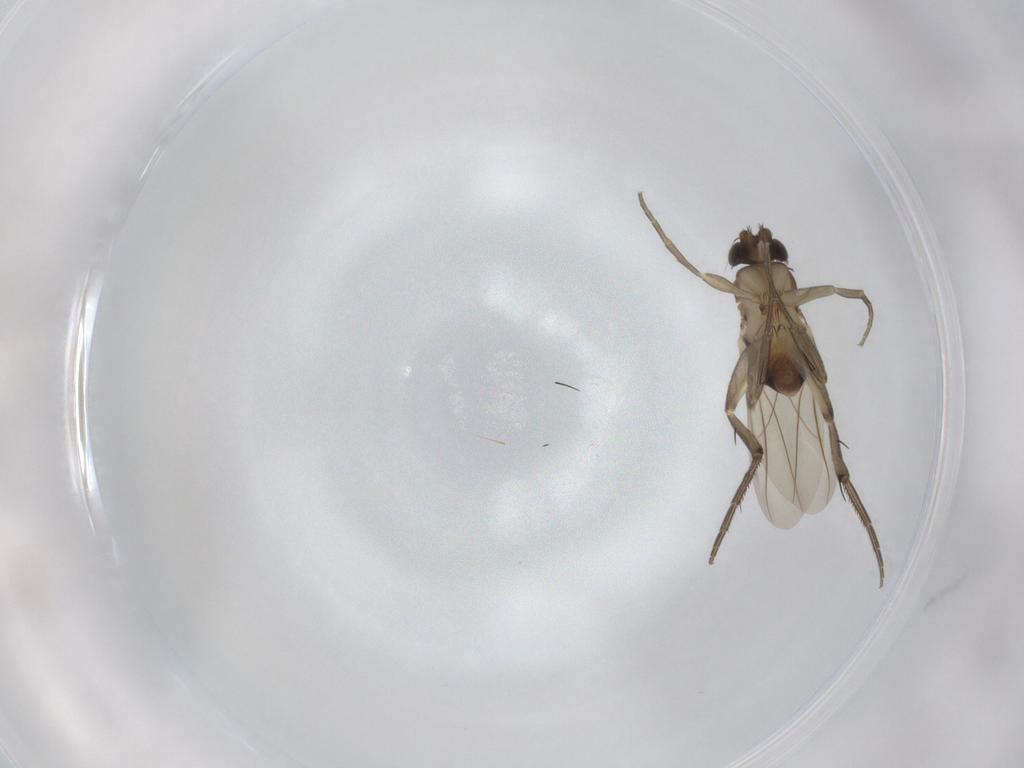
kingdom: Animalia
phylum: Arthropoda
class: Insecta
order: Diptera
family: Phoridae
